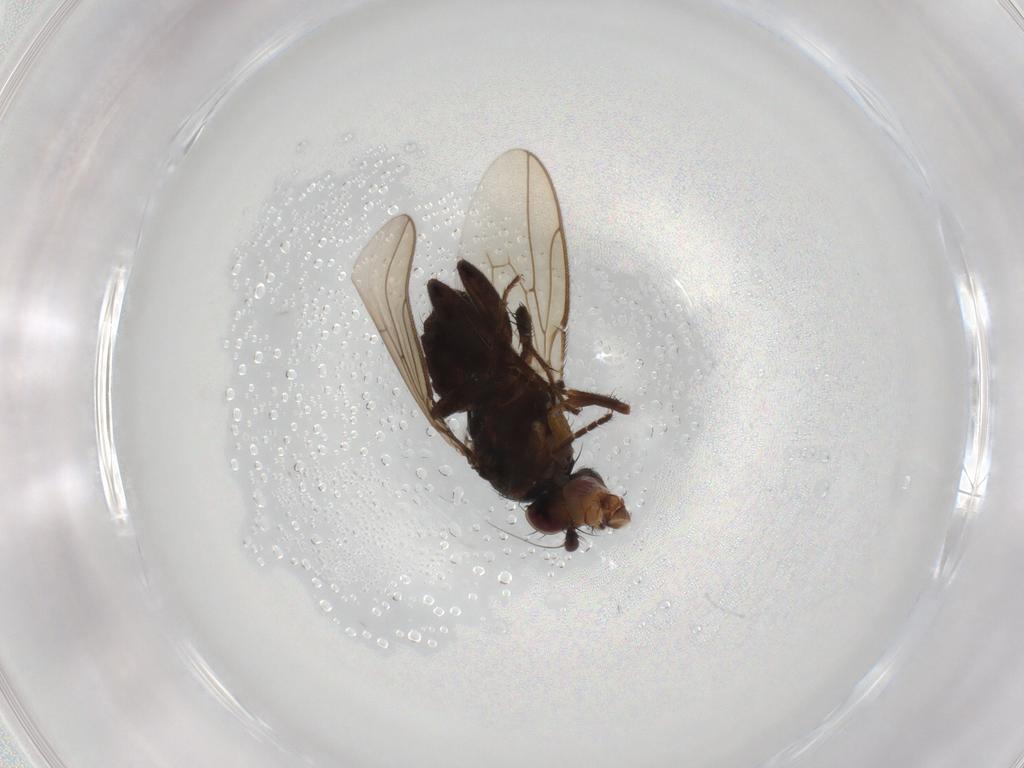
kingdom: Animalia
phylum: Arthropoda
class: Insecta
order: Diptera
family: Sphaeroceridae
